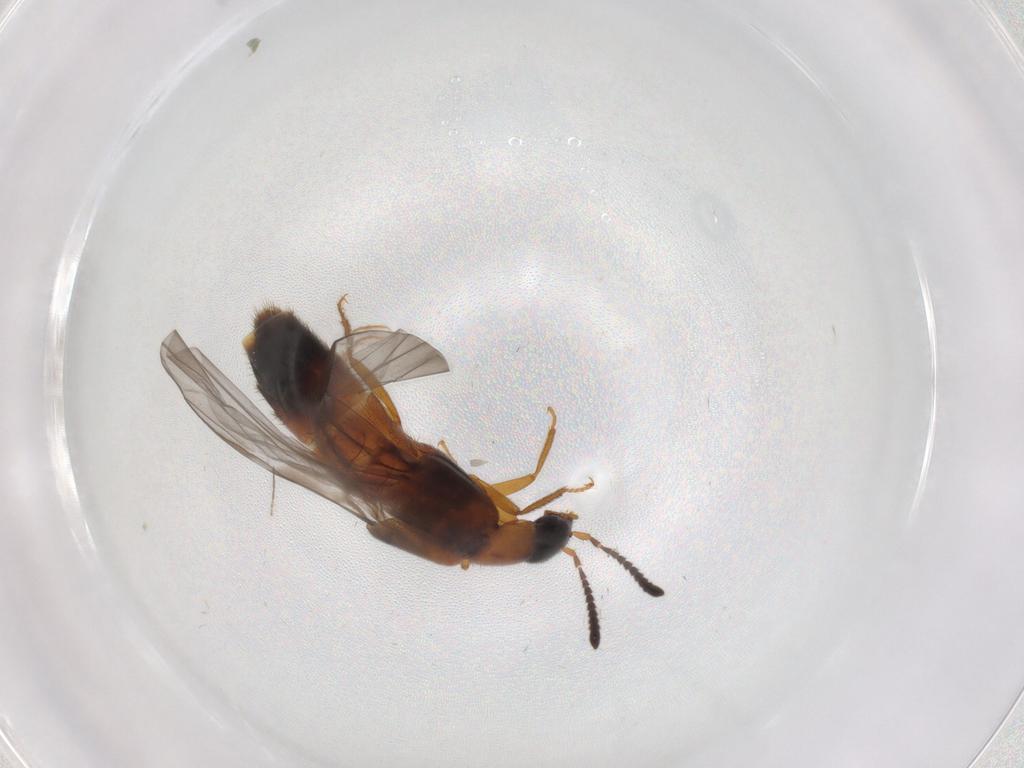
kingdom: Animalia
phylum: Arthropoda
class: Insecta
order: Coleoptera
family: Staphylinidae
